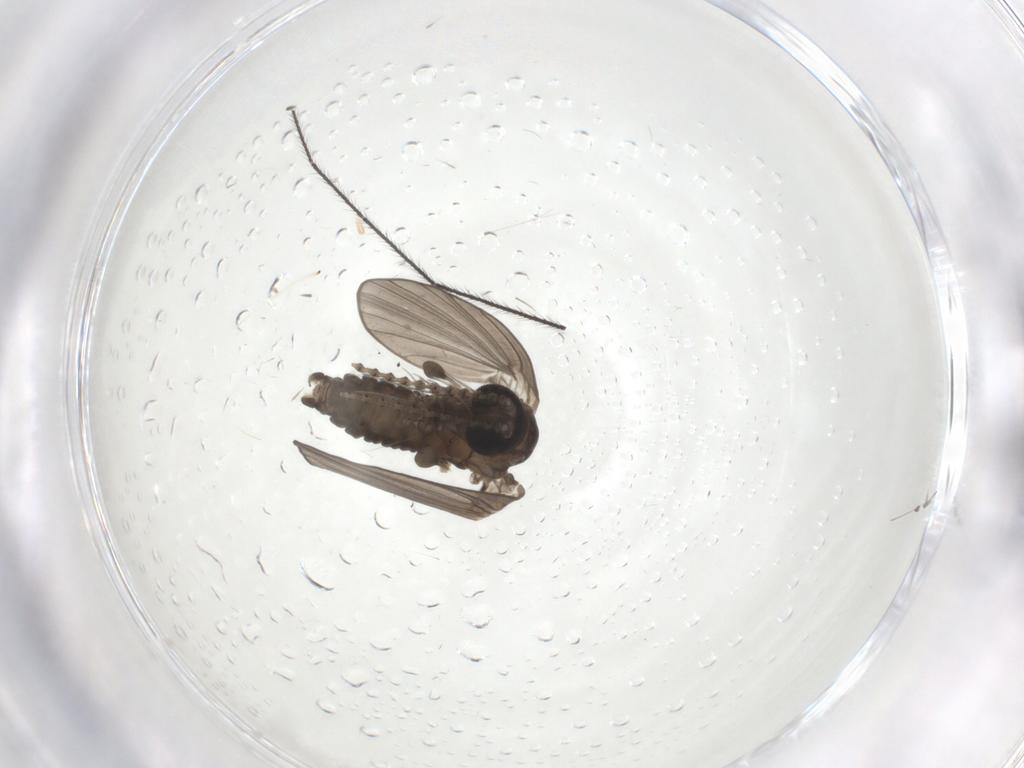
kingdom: Animalia
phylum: Arthropoda
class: Insecta
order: Diptera
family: Psychodidae
